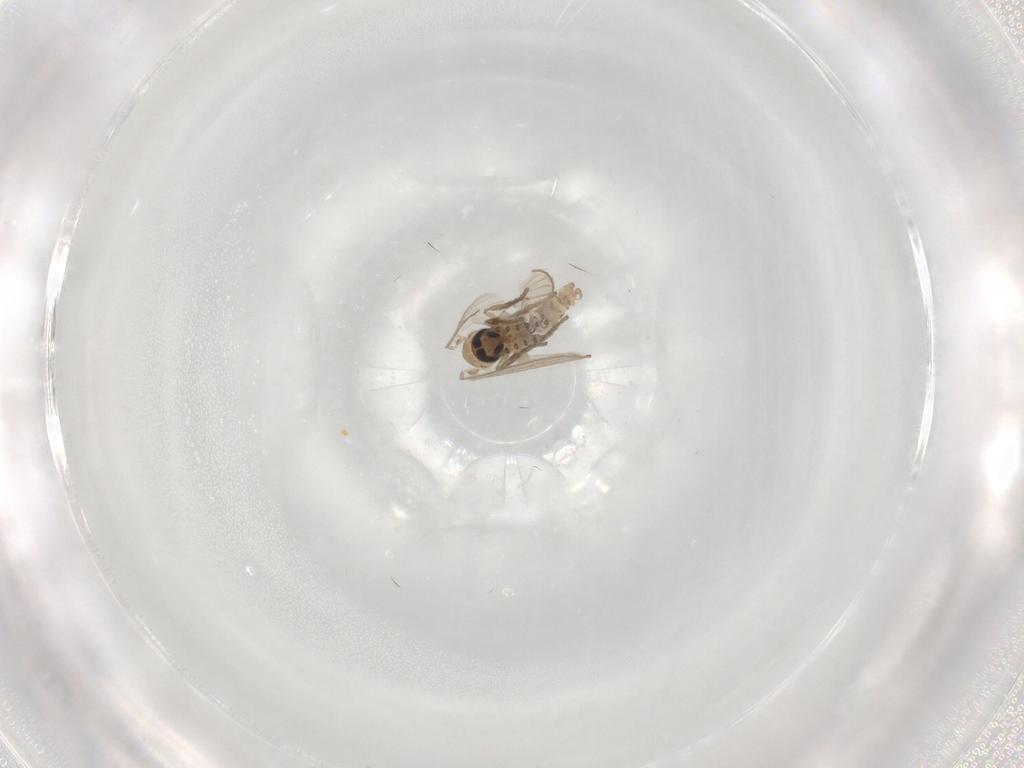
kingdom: Animalia
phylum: Arthropoda
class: Insecta
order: Diptera
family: Psychodidae
